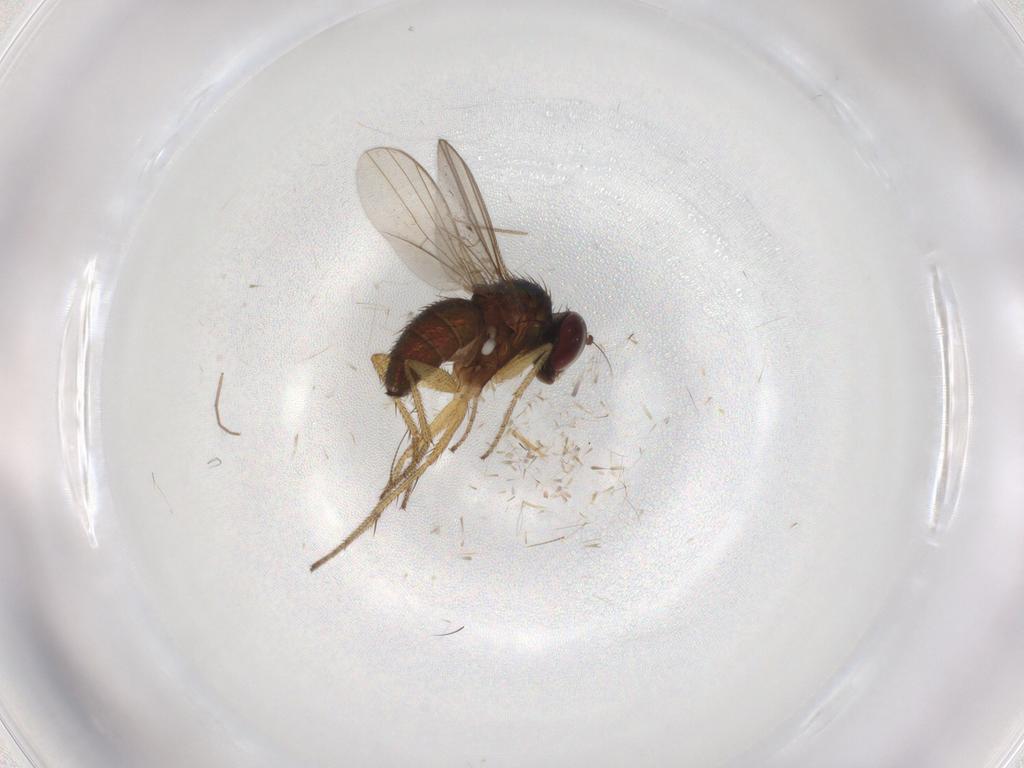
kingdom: Animalia
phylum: Arthropoda
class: Insecta
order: Diptera
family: Chironomidae
